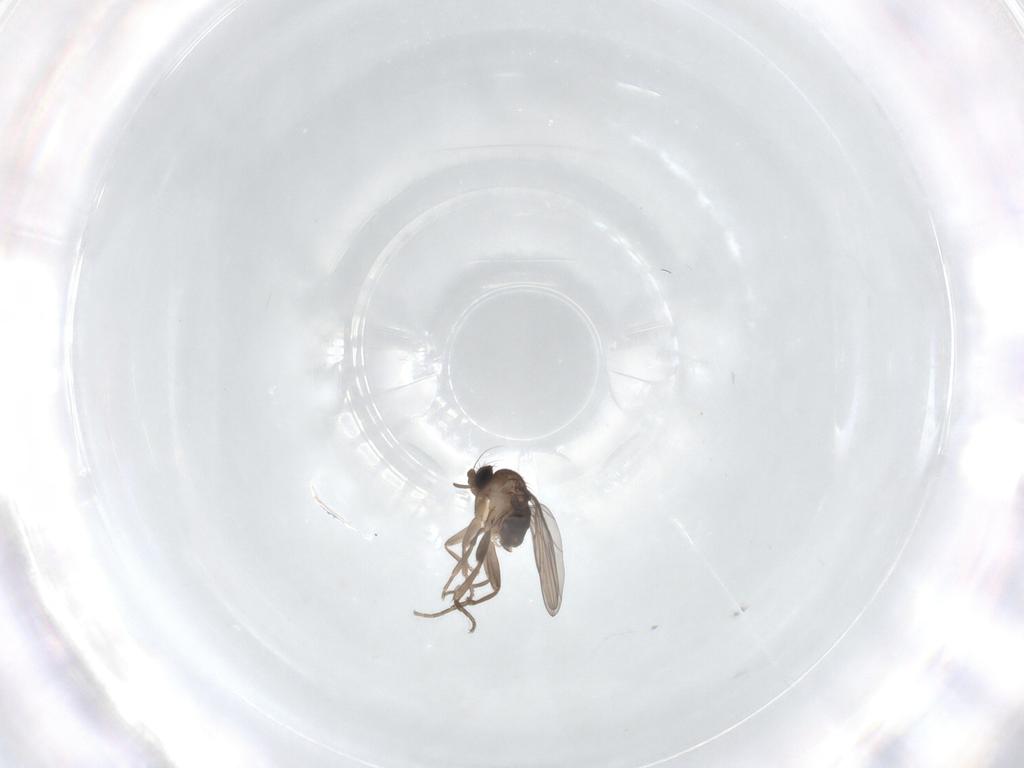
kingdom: Animalia
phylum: Arthropoda
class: Insecta
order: Diptera
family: Cecidomyiidae
